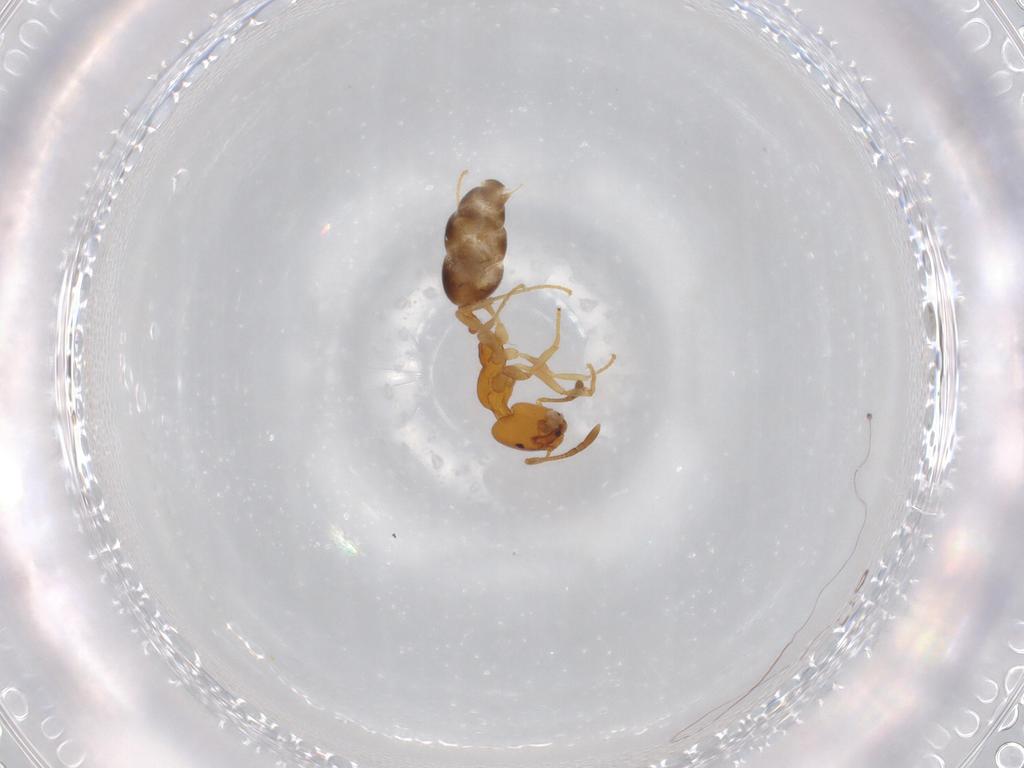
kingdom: Animalia
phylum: Arthropoda
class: Insecta
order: Hymenoptera
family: Formicidae
